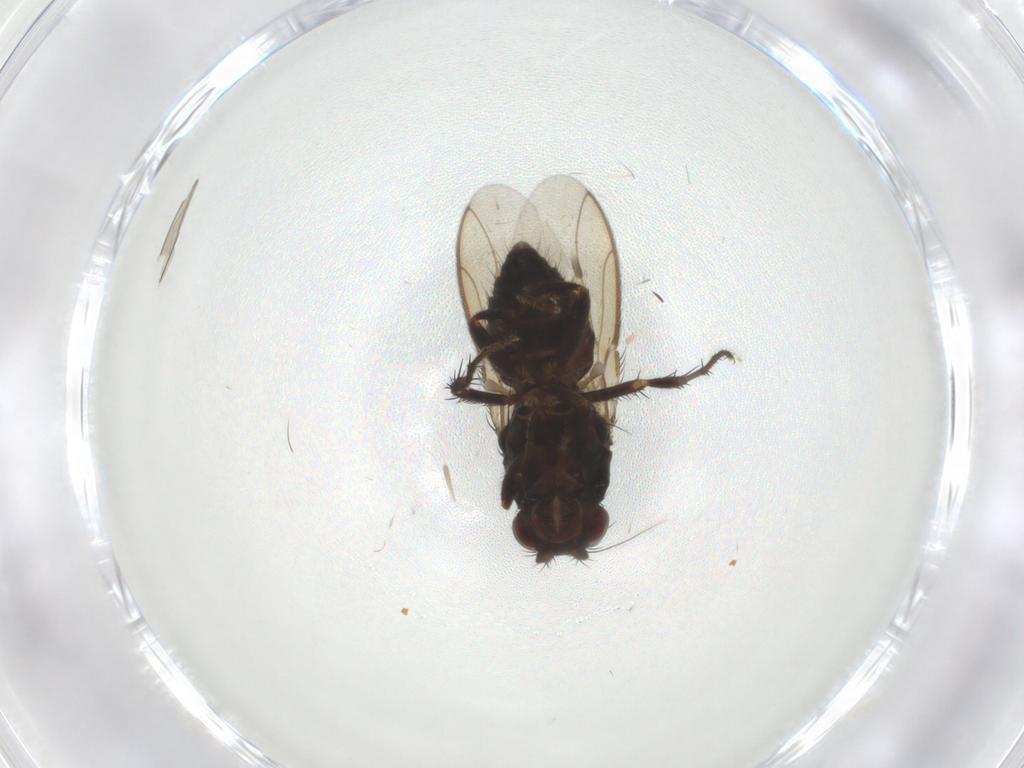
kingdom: Animalia
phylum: Arthropoda
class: Insecta
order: Diptera
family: Sphaeroceridae
